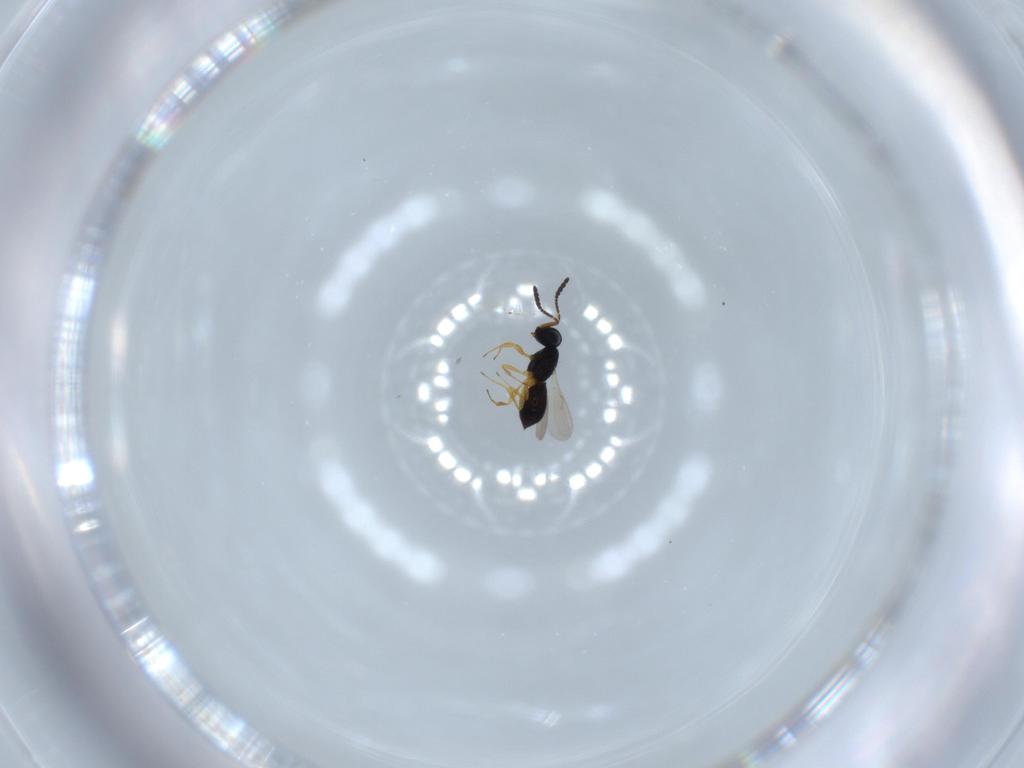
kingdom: Animalia
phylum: Arthropoda
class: Insecta
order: Hymenoptera
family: Scelionidae
